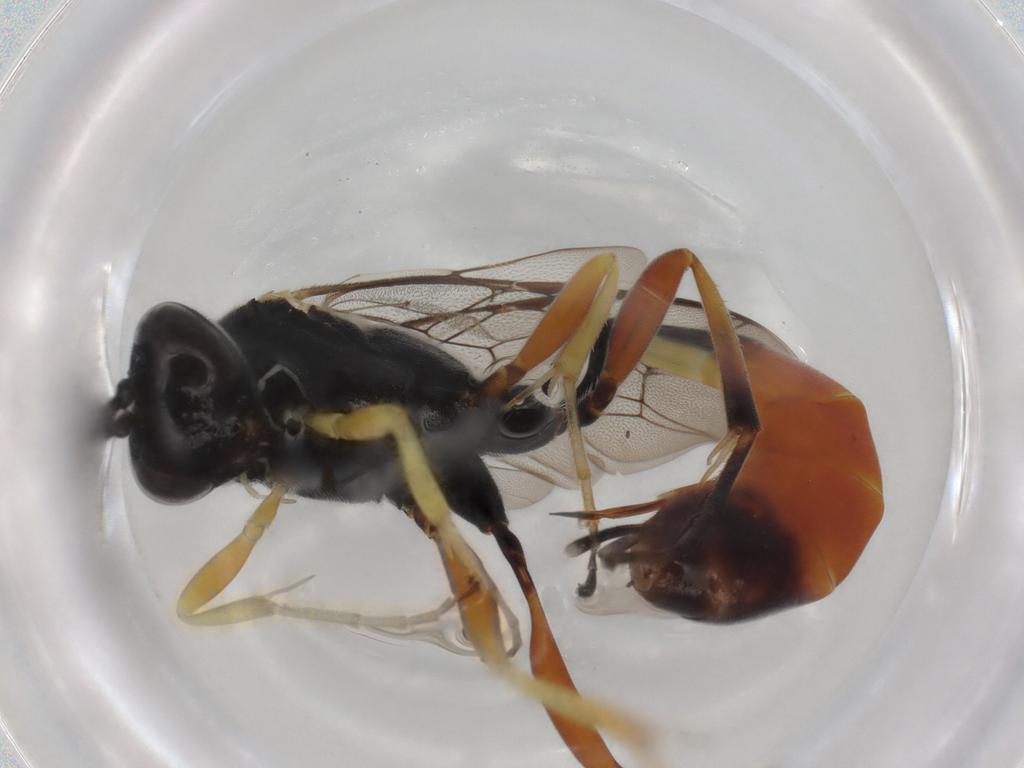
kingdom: Animalia
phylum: Arthropoda
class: Insecta
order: Hymenoptera
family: Ichneumonidae
